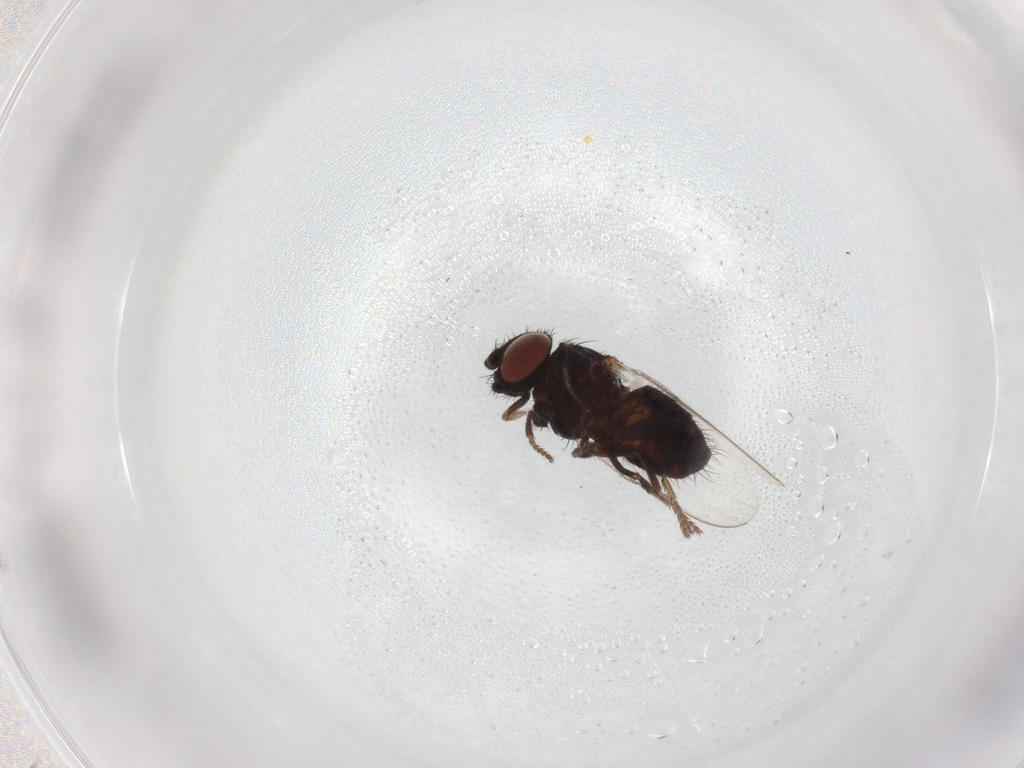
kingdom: Animalia
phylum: Arthropoda
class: Insecta
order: Diptera
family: Milichiidae
